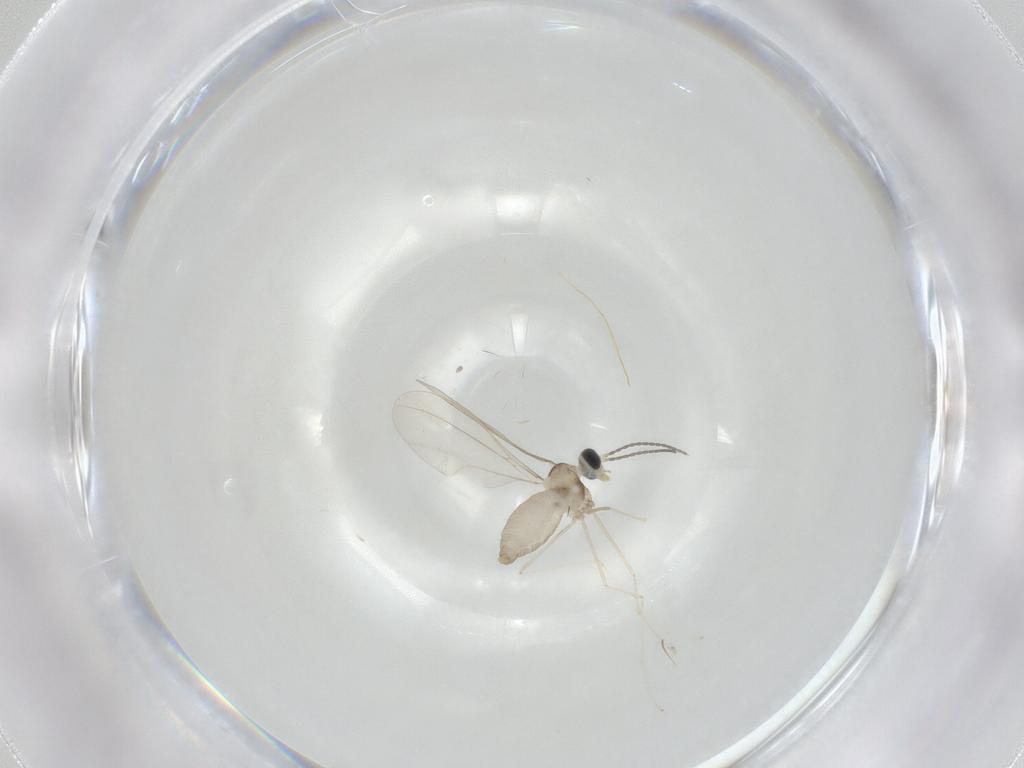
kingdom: Animalia
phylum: Arthropoda
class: Insecta
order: Diptera
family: Cecidomyiidae
